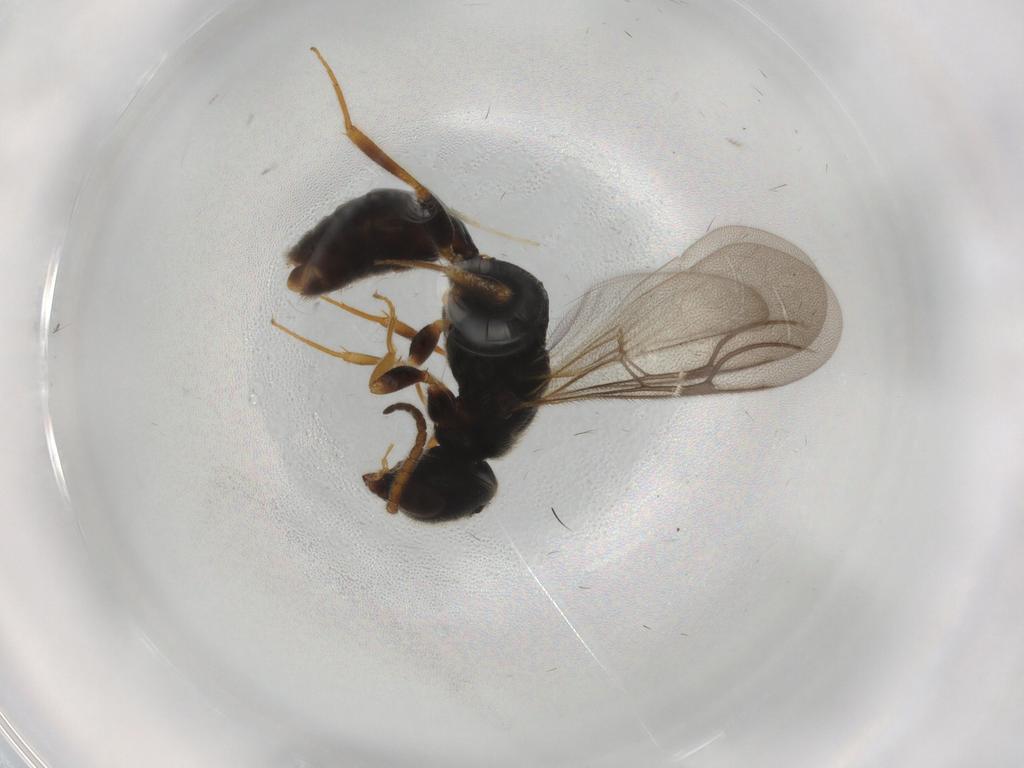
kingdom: Animalia
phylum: Arthropoda
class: Insecta
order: Hymenoptera
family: Bethylidae
